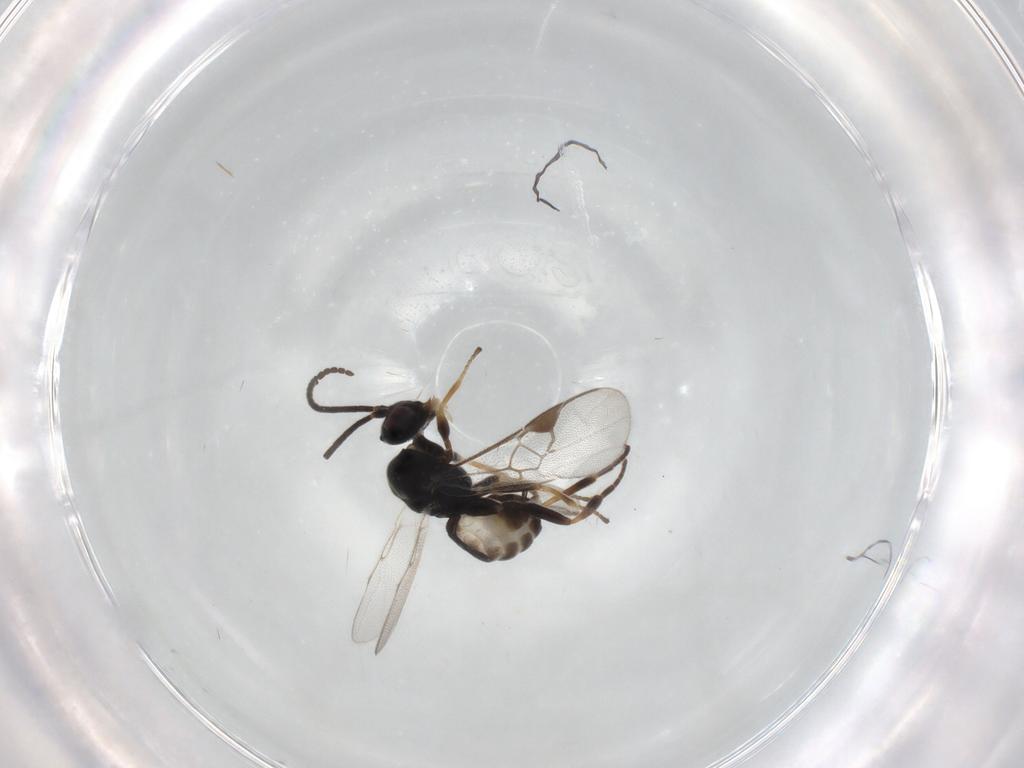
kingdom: Animalia
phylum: Arthropoda
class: Insecta
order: Hymenoptera
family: Braconidae
